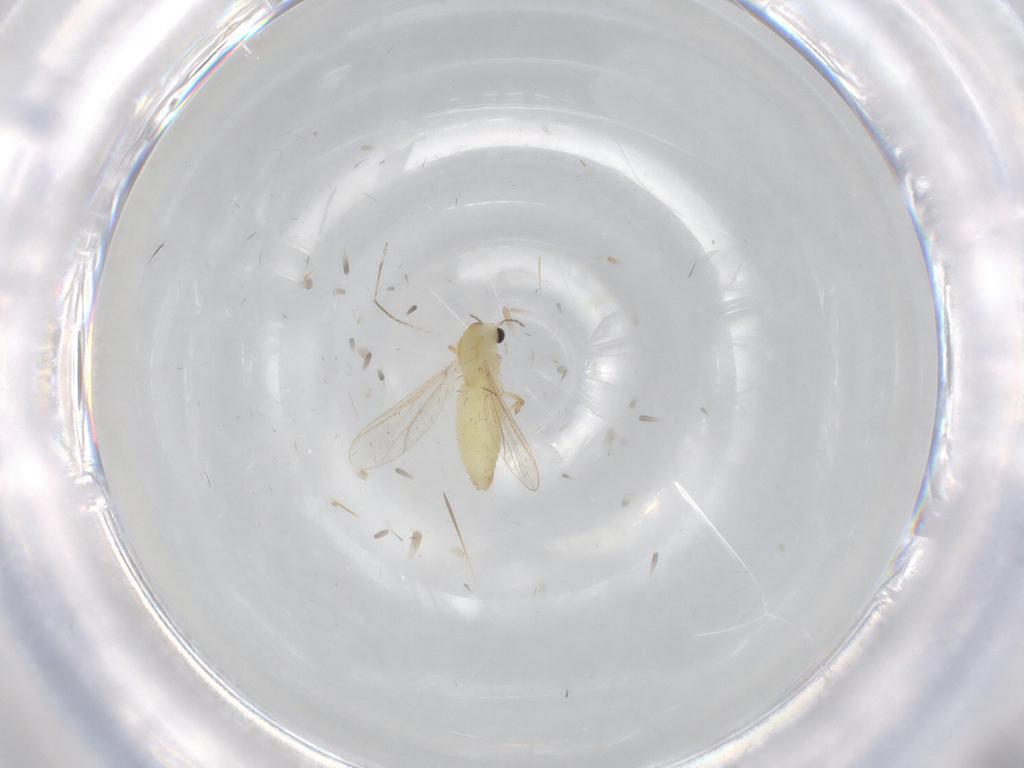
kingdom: Animalia
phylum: Arthropoda
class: Insecta
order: Diptera
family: Chironomidae
